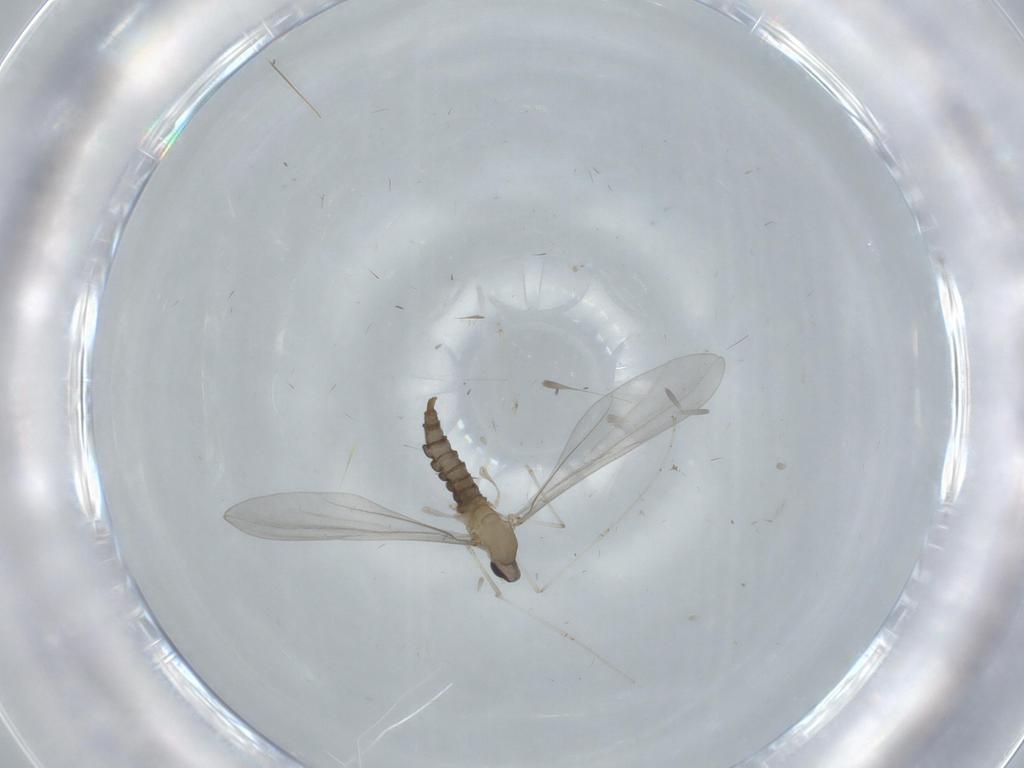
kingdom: Animalia
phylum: Arthropoda
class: Insecta
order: Diptera
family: Cecidomyiidae
